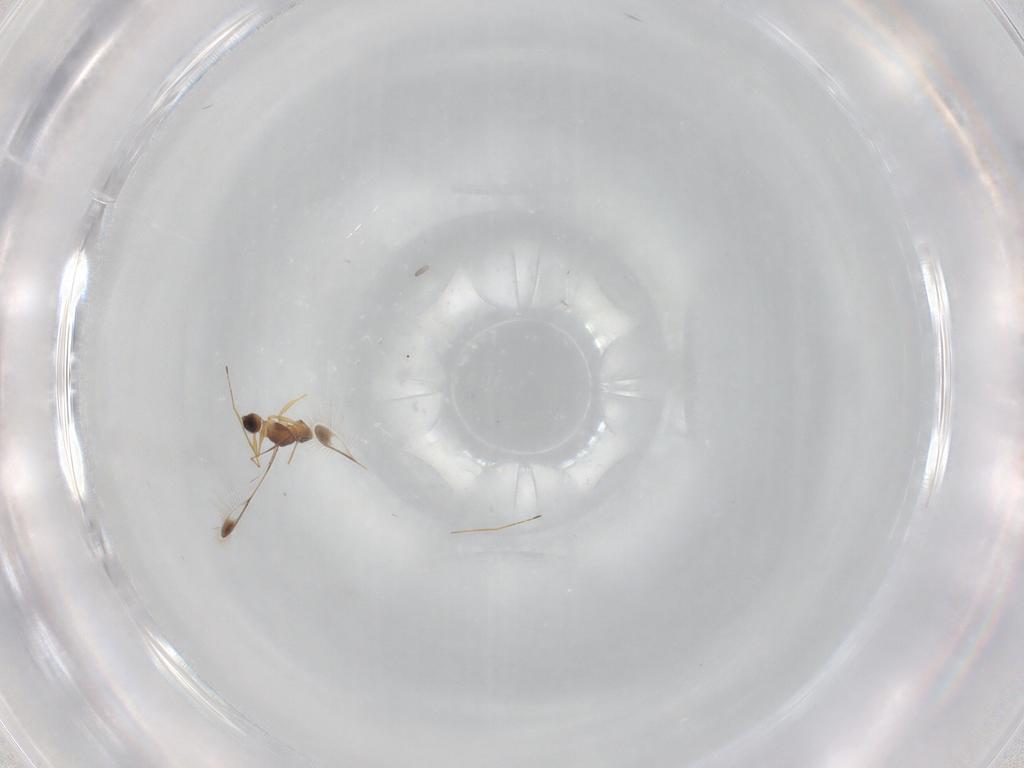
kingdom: Animalia
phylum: Arthropoda
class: Insecta
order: Hymenoptera
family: Ichneumonidae
